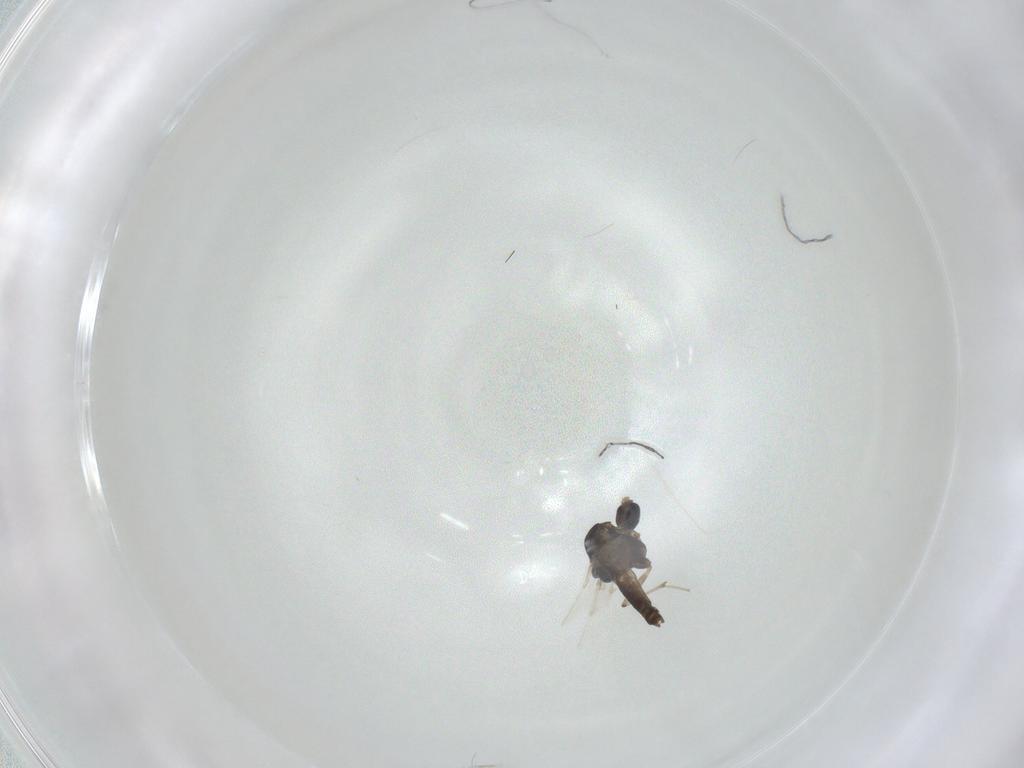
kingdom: Animalia
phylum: Arthropoda
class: Insecta
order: Diptera
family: Chironomidae
